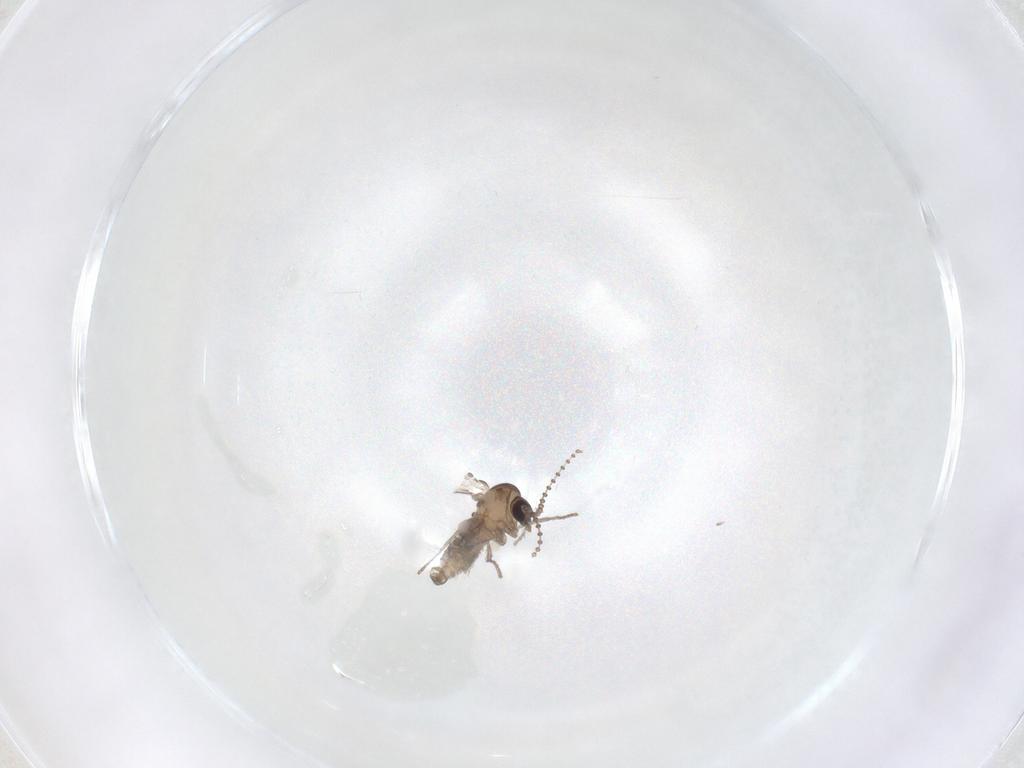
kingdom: Animalia
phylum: Arthropoda
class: Insecta
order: Diptera
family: Psychodidae
